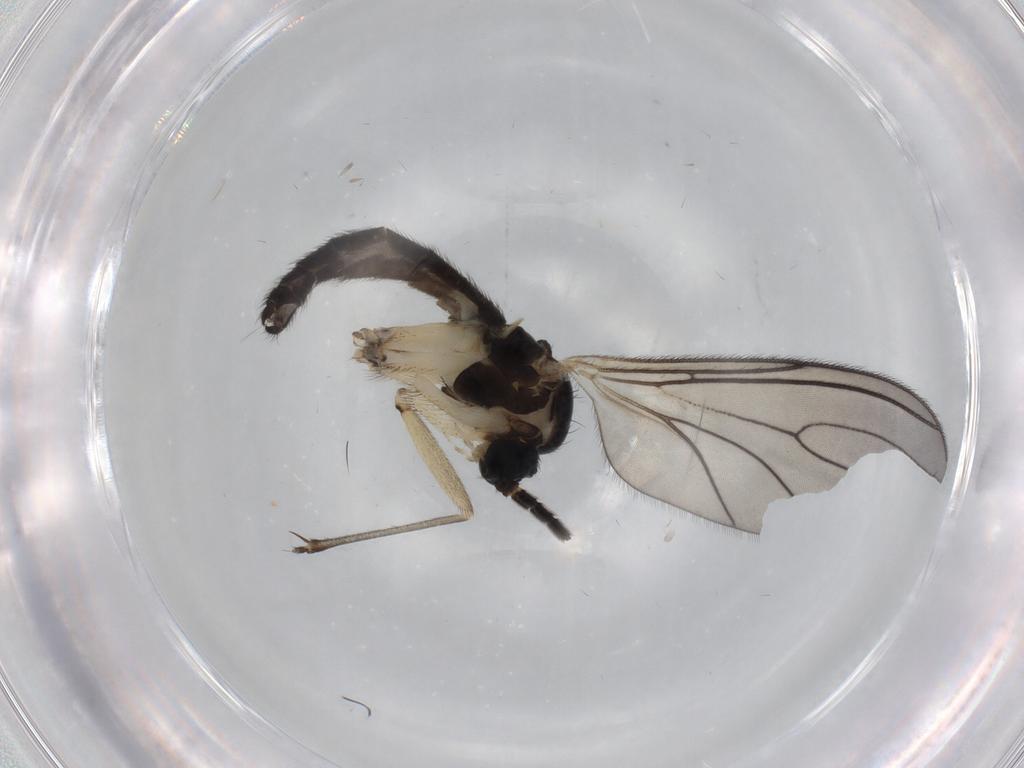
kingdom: Animalia
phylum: Arthropoda
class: Insecta
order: Diptera
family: Sciaridae
